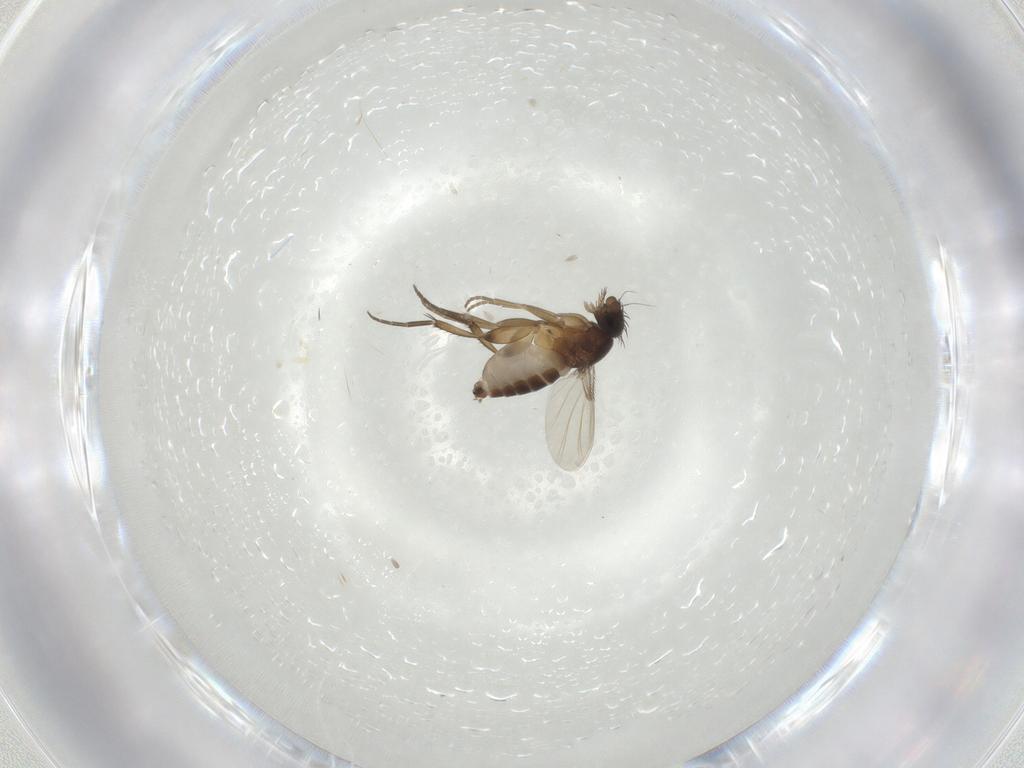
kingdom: Animalia
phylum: Arthropoda
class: Insecta
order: Diptera
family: Phoridae
